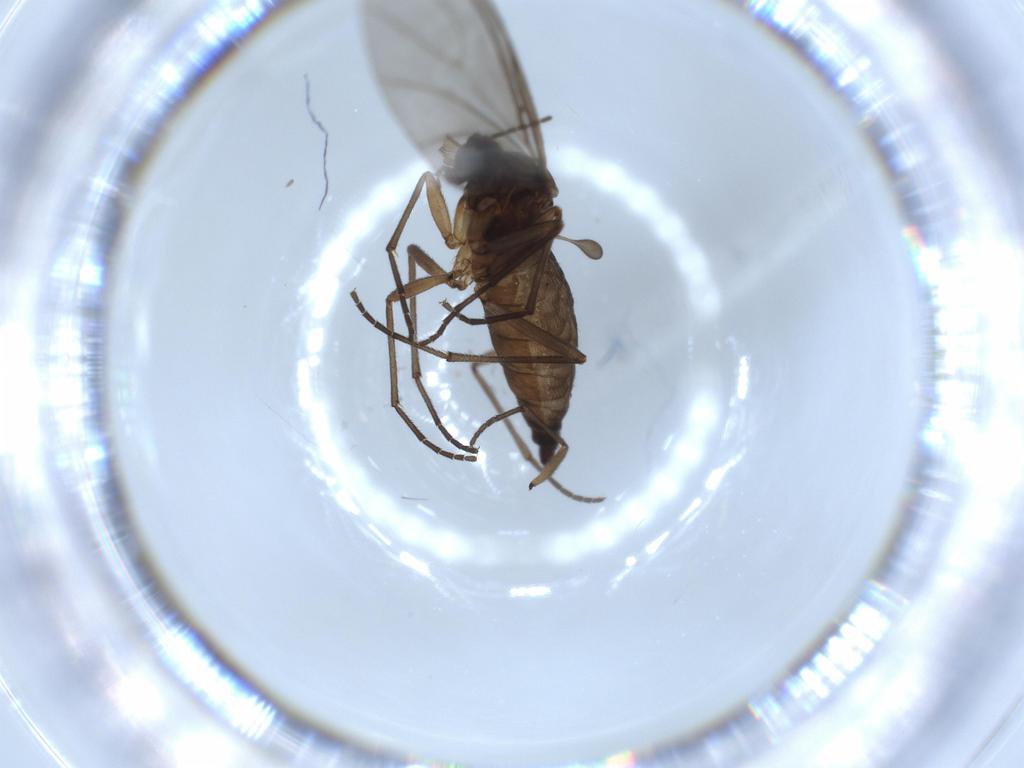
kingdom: Animalia
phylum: Arthropoda
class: Insecta
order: Diptera
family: Sciaridae
